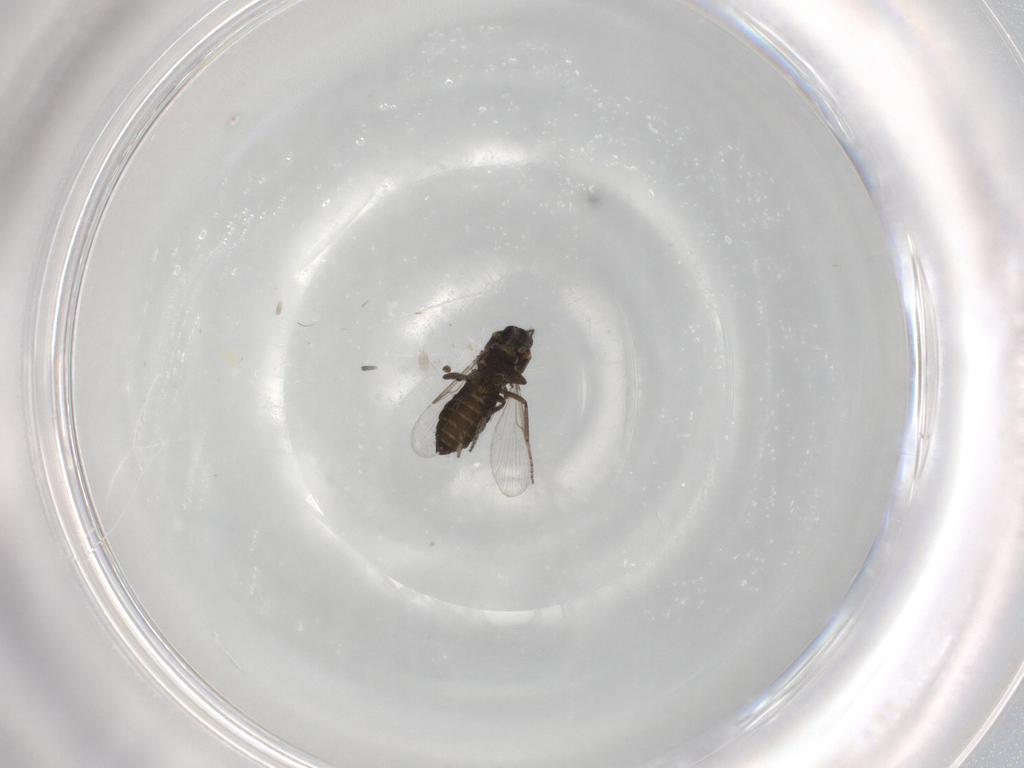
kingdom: Animalia
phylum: Arthropoda
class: Insecta
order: Diptera
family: Ceratopogonidae
